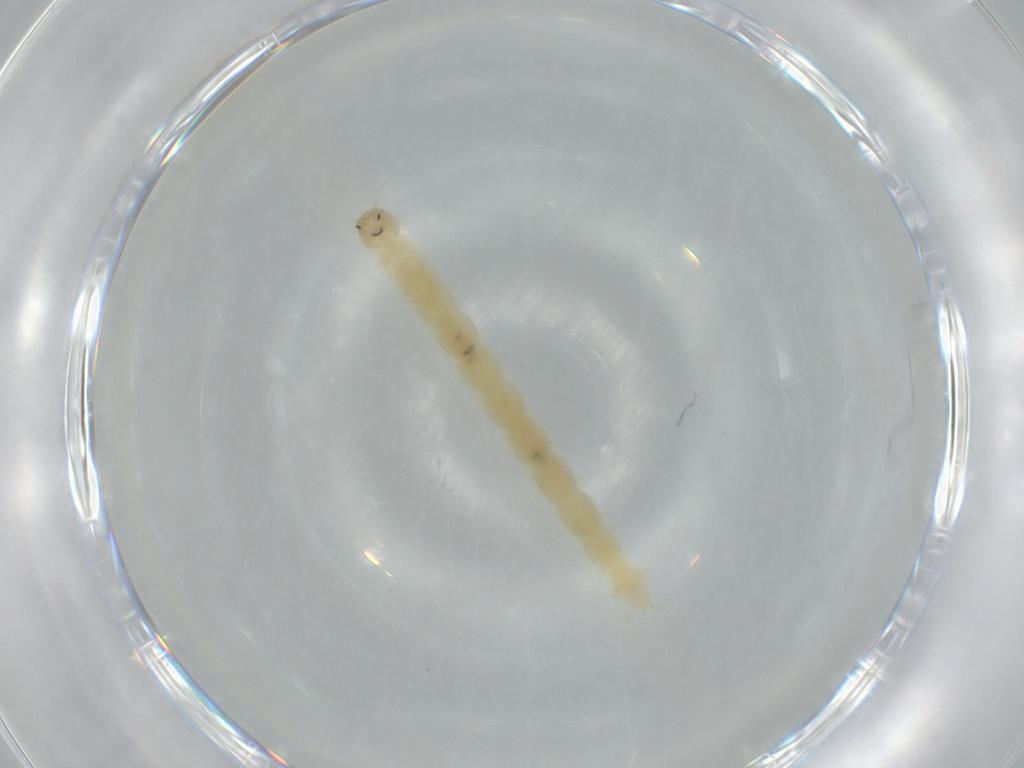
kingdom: Animalia
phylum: Arthropoda
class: Insecta
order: Diptera
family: Chironomidae
